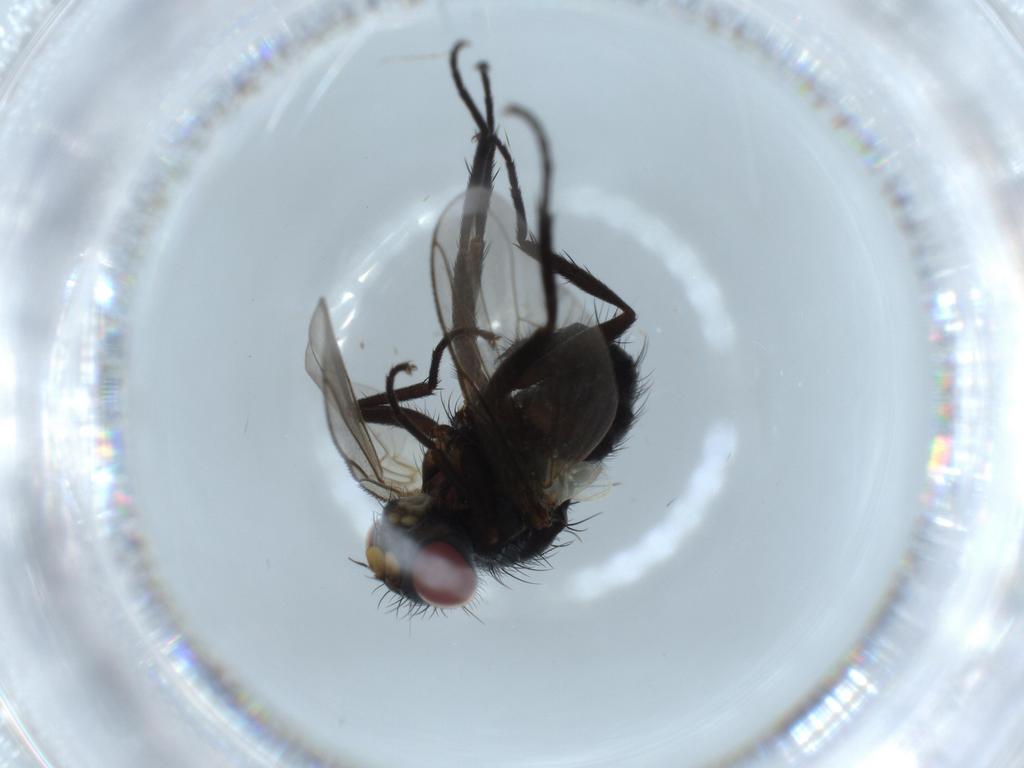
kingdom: Animalia
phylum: Arthropoda
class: Insecta
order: Diptera
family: Tachinidae
